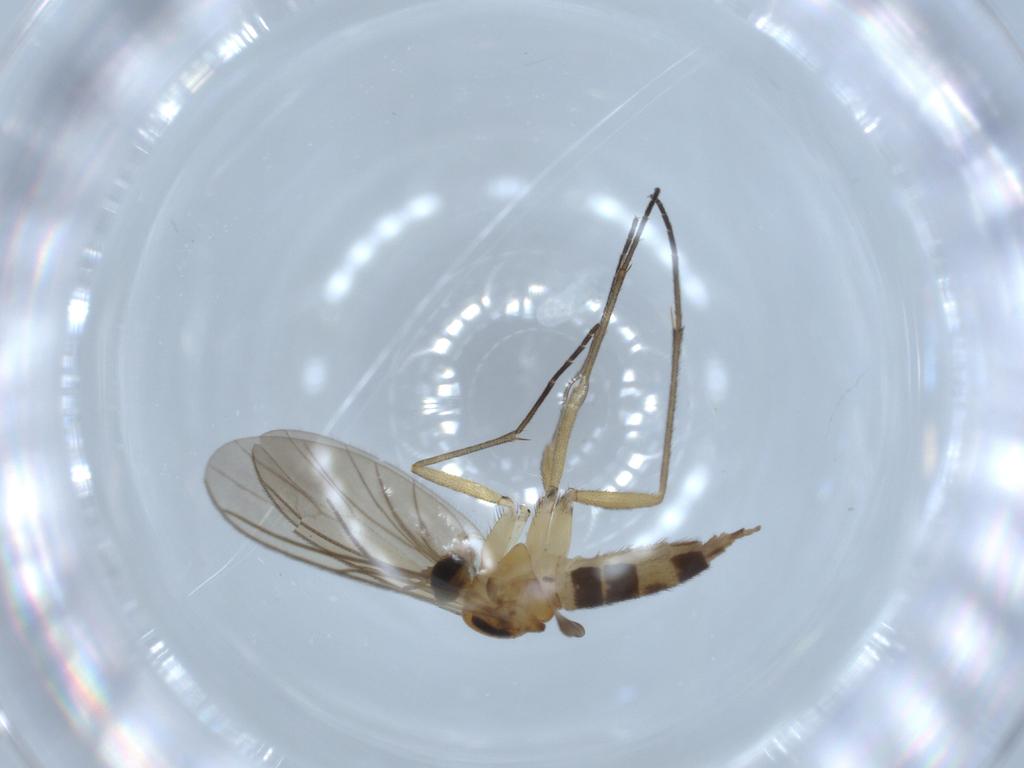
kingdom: Animalia
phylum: Arthropoda
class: Insecta
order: Diptera
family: Sciaridae
